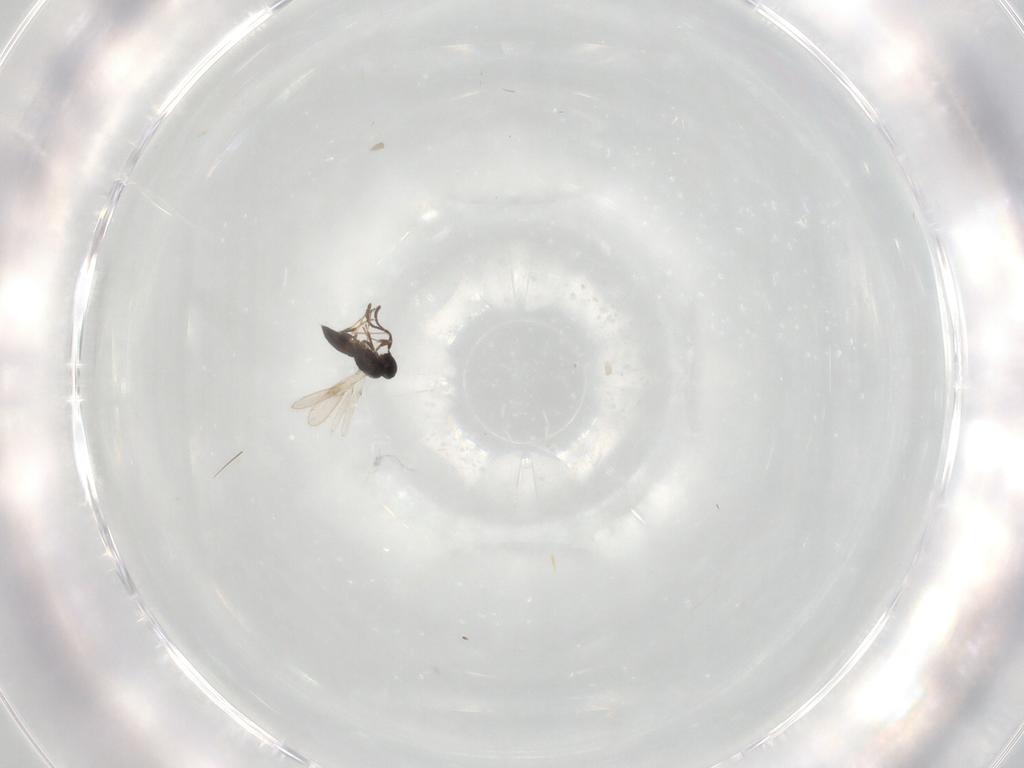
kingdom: Animalia
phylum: Arthropoda
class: Insecta
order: Hymenoptera
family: Scelionidae
